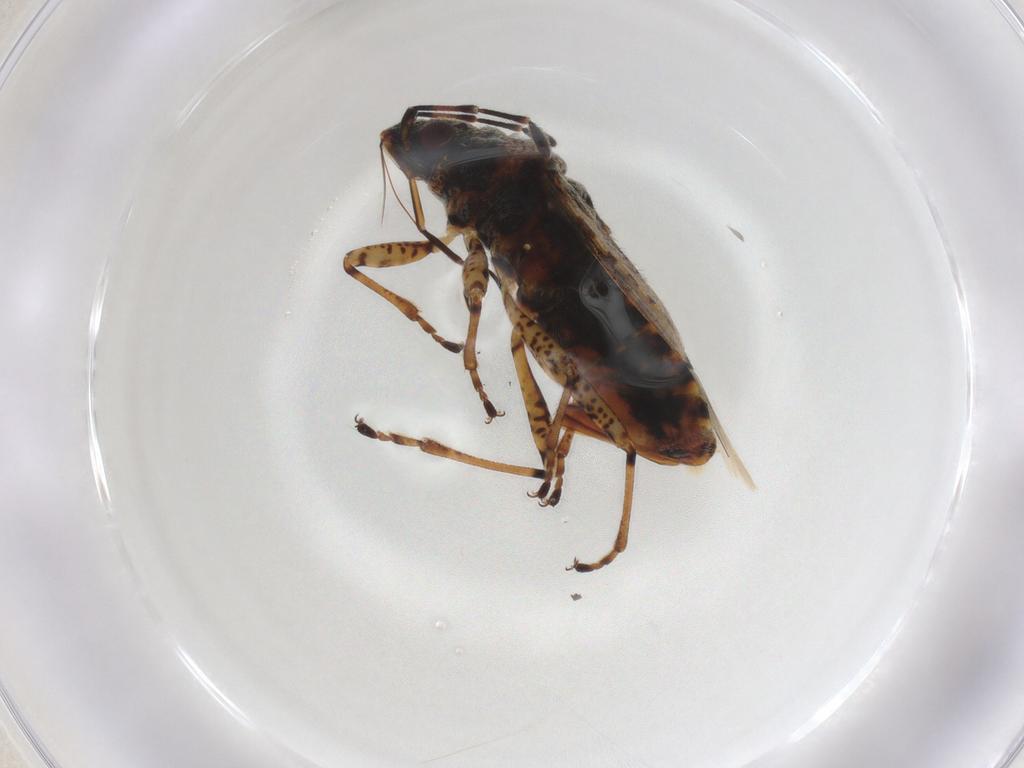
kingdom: Animalia
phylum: Arthropoda
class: Insecta
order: Hemiptera
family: Lygaeidae
